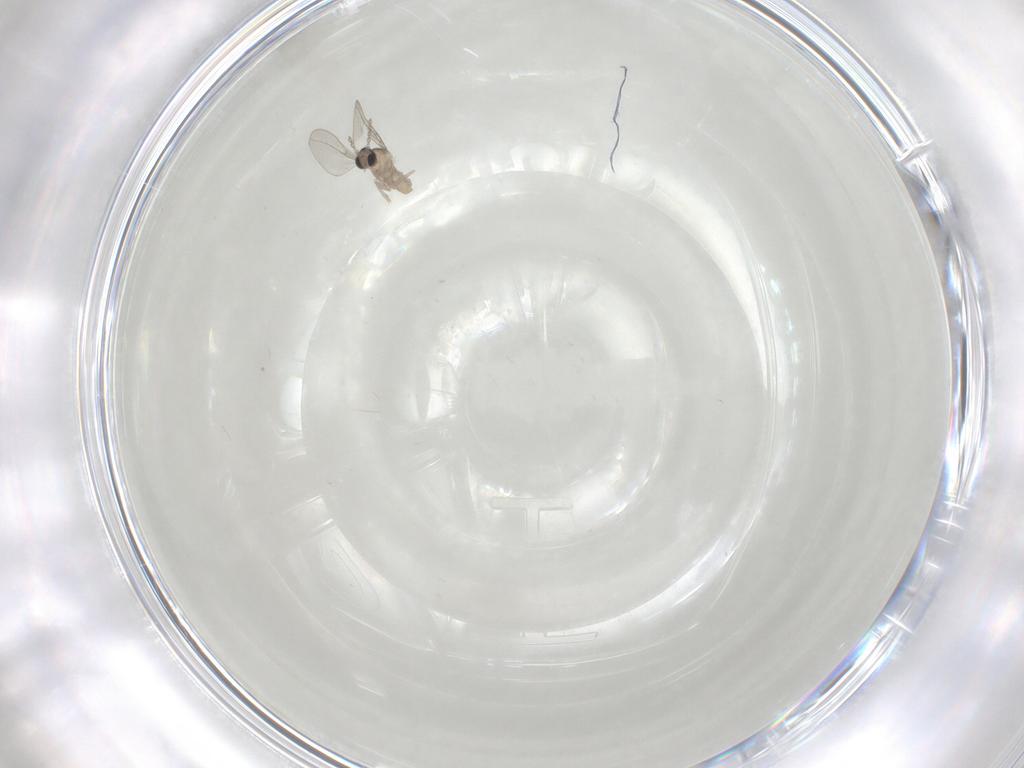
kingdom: Animalia
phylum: Arthropoda
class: Insecta
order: Diptera
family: Cecidomyiidae
